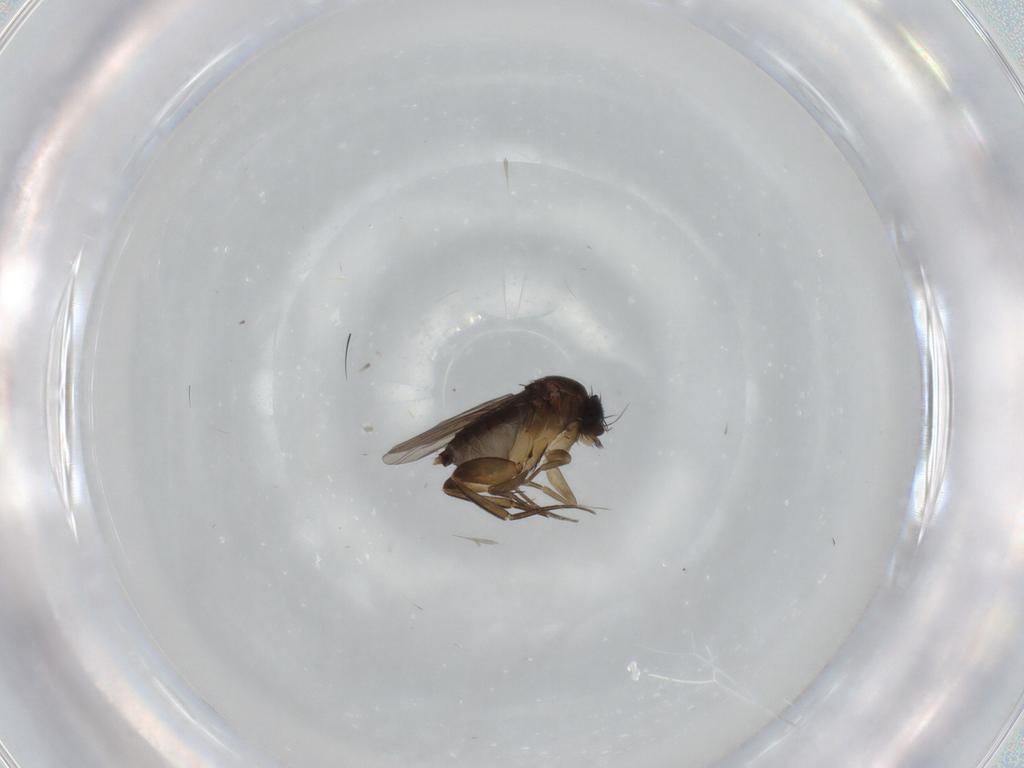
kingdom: Animalia
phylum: Arthropoda
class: Insecta
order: Diptera
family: Phoridae
